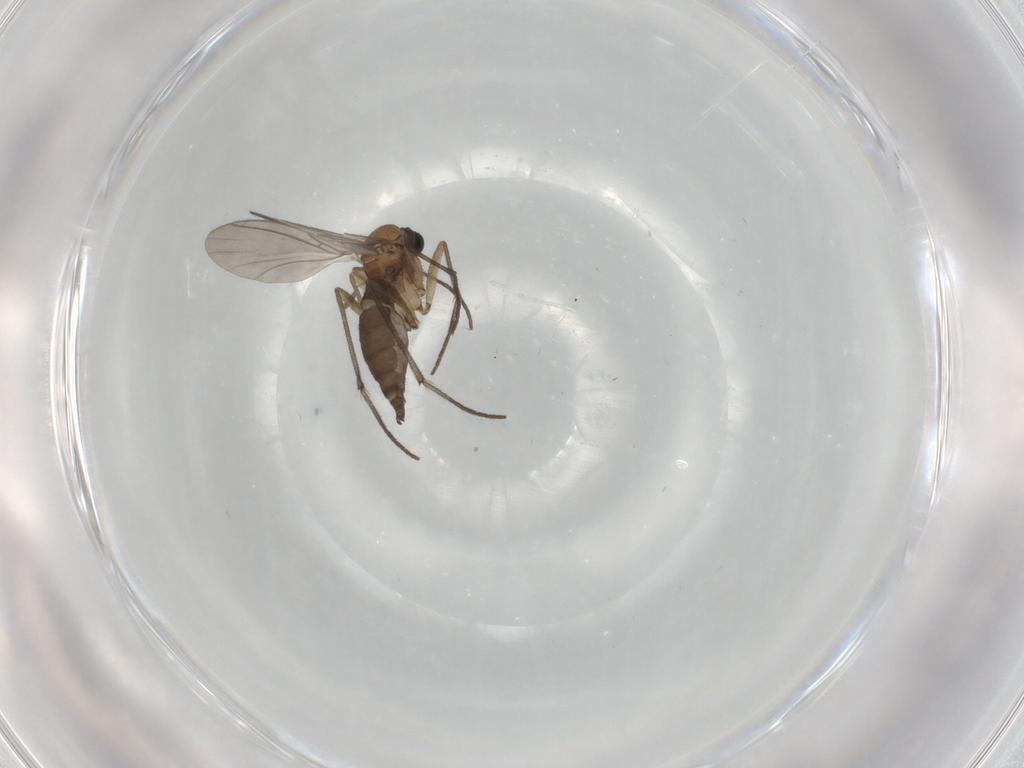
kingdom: Animalia
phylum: Arthropoda
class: Insecta
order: Diptera
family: Sciaridae
